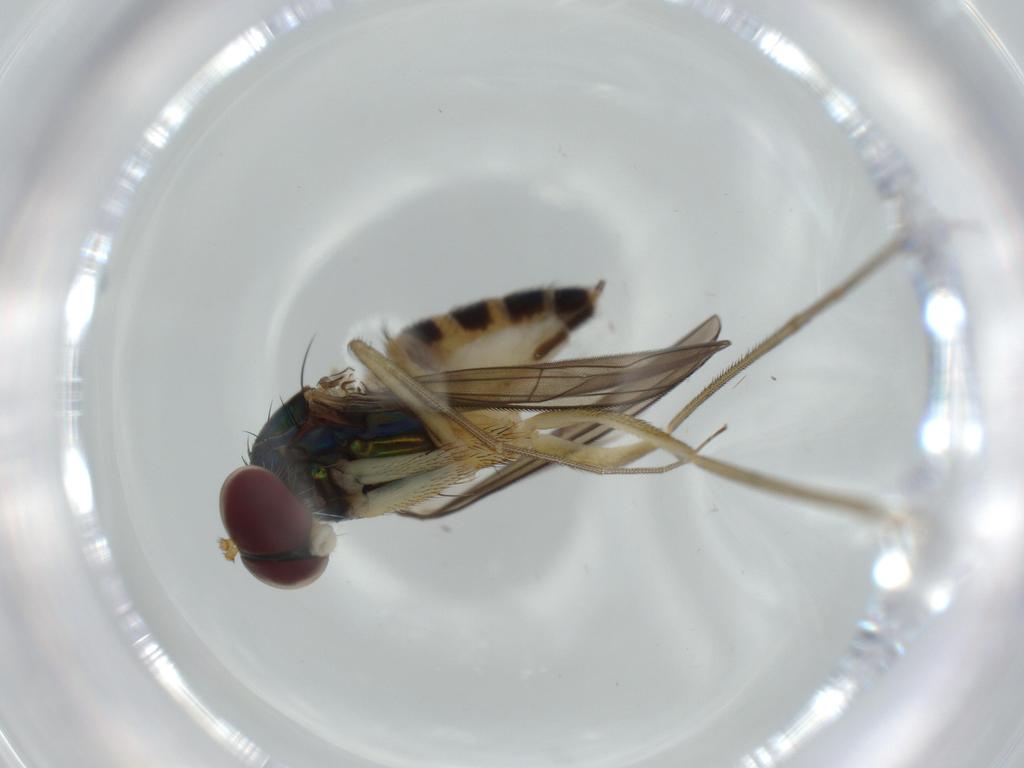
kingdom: Animalia
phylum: Arthropoda
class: Insecta
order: Diptera
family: Dolichopodidae
